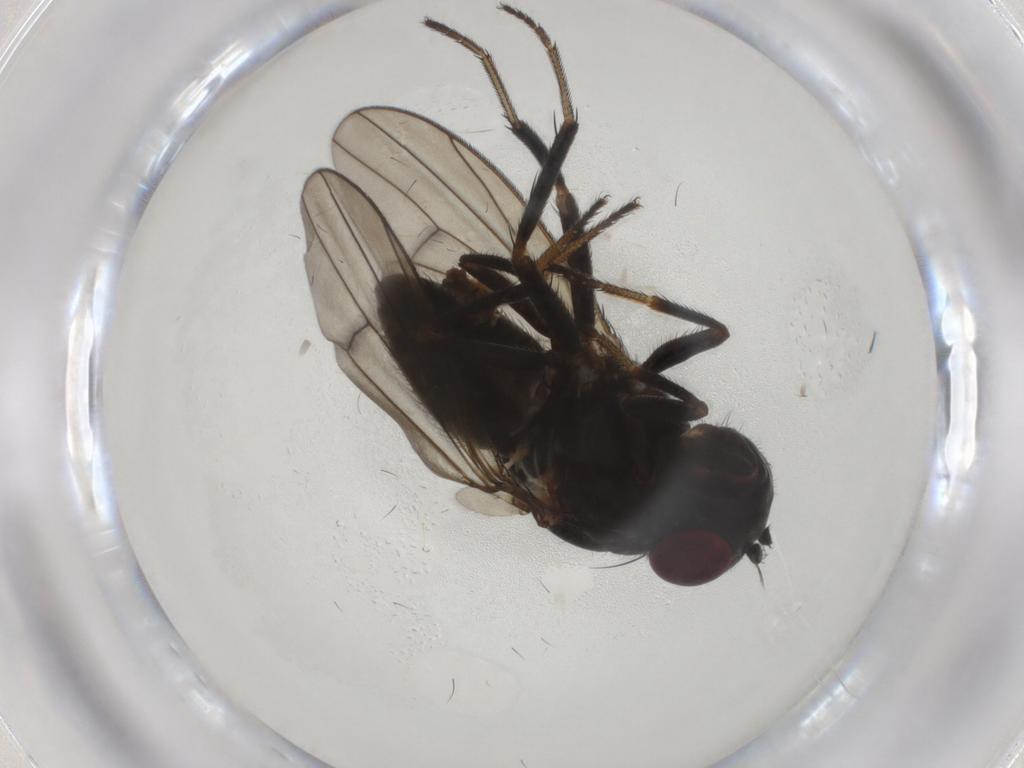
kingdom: Animalia
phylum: Arthropoda
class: Insecta
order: Diptera
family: Ephydridae
